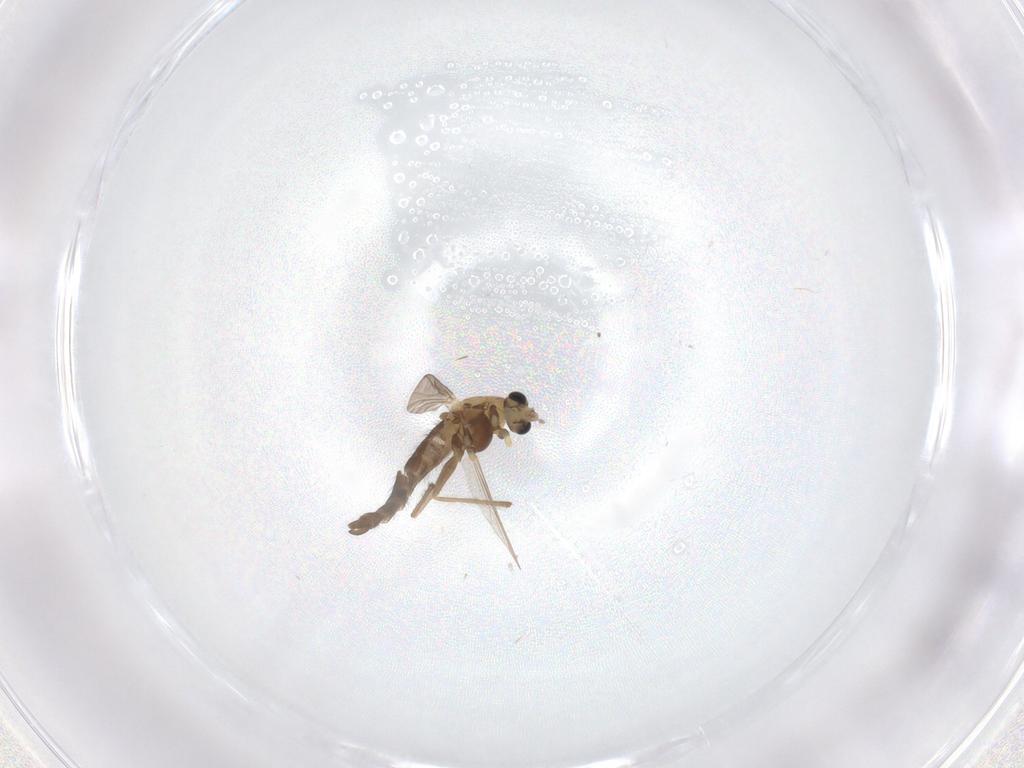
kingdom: Animalia
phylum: Arthropoda
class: Insecta
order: Diptera
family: Chironomidae
